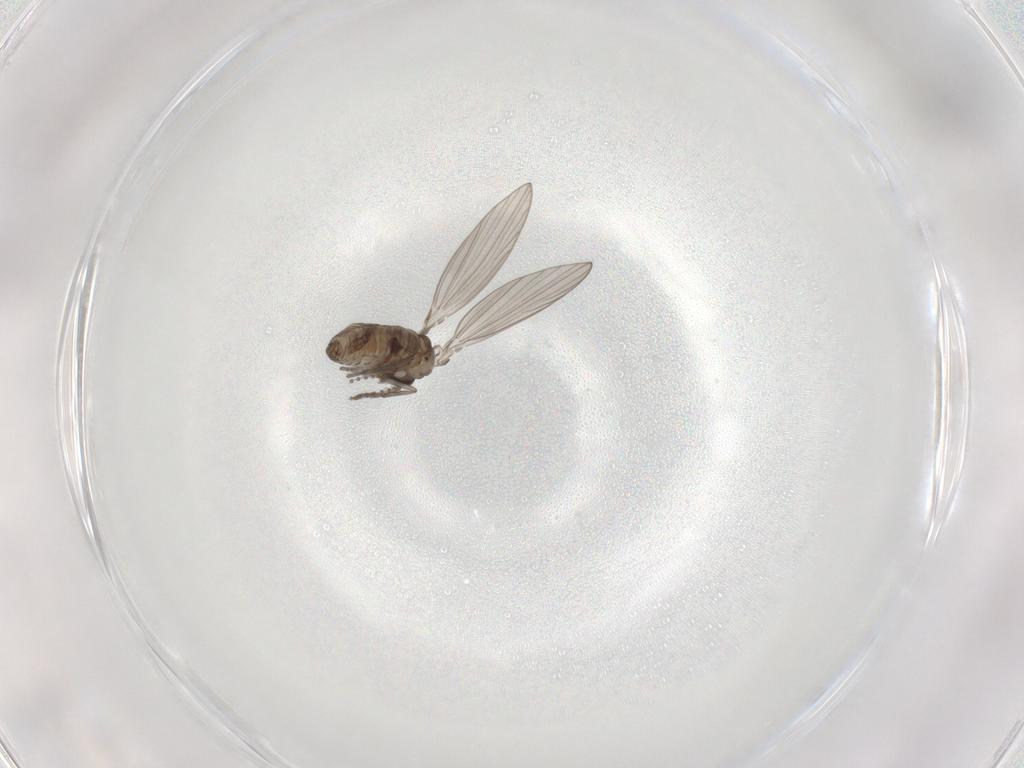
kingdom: Animalia
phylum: Arthropoda
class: Insecta
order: Diptera
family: Psychodidae
